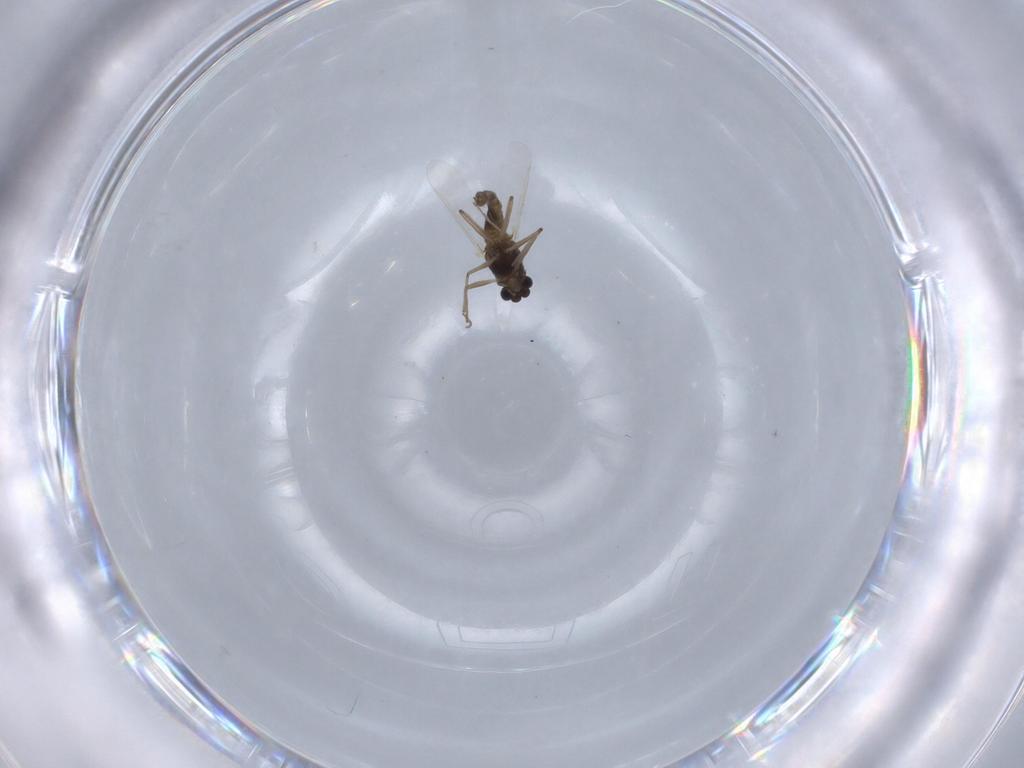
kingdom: Animalia
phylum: Arthropoda
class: Insecta
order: Diptera
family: Chironomidae
